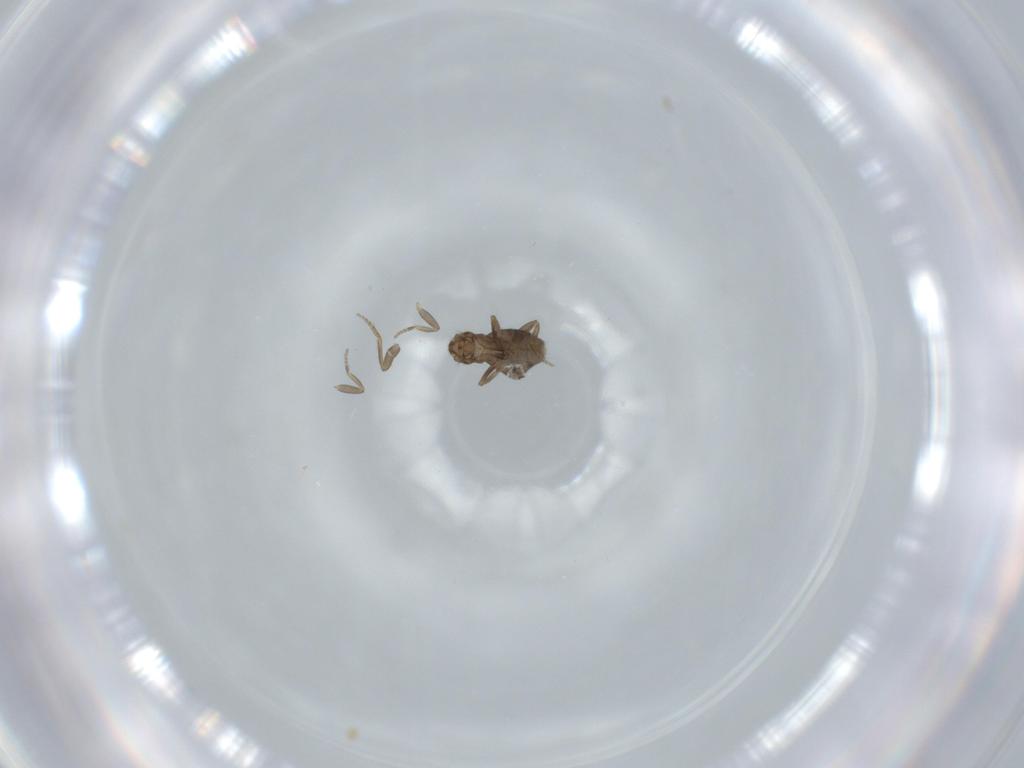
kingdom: Animalia
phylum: Arthropoda
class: Insecta
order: Diptera
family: Phoridae
